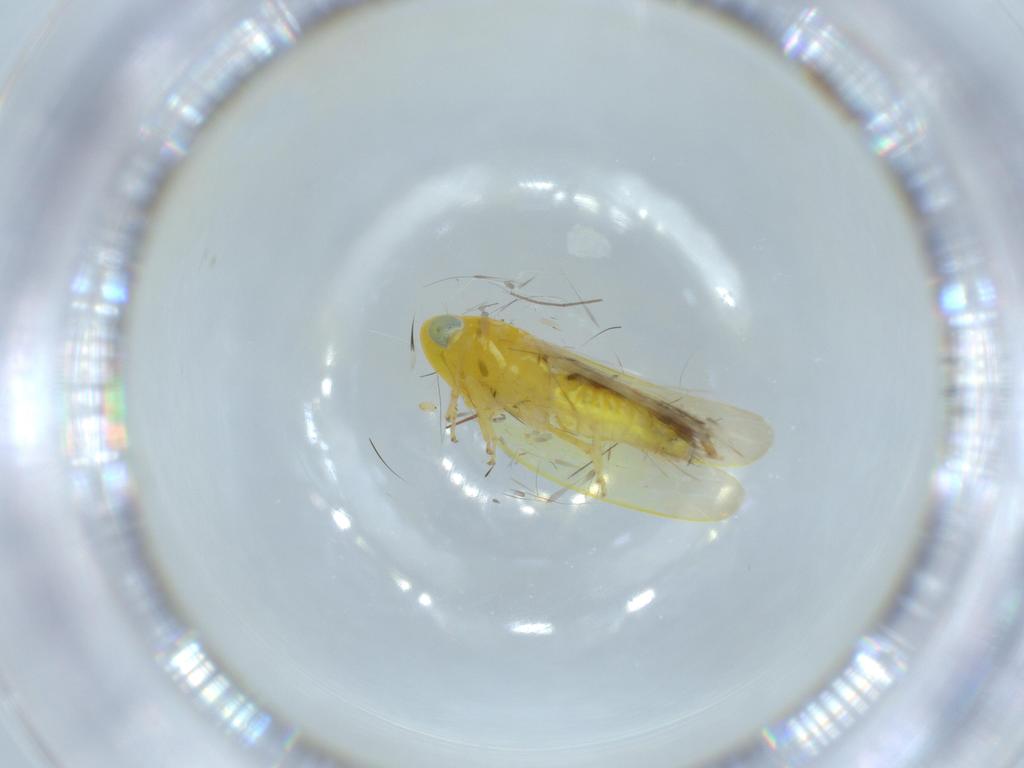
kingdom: Animalia
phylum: Arthropoda
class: Insecta
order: Hemiptera
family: Cicadellidae
